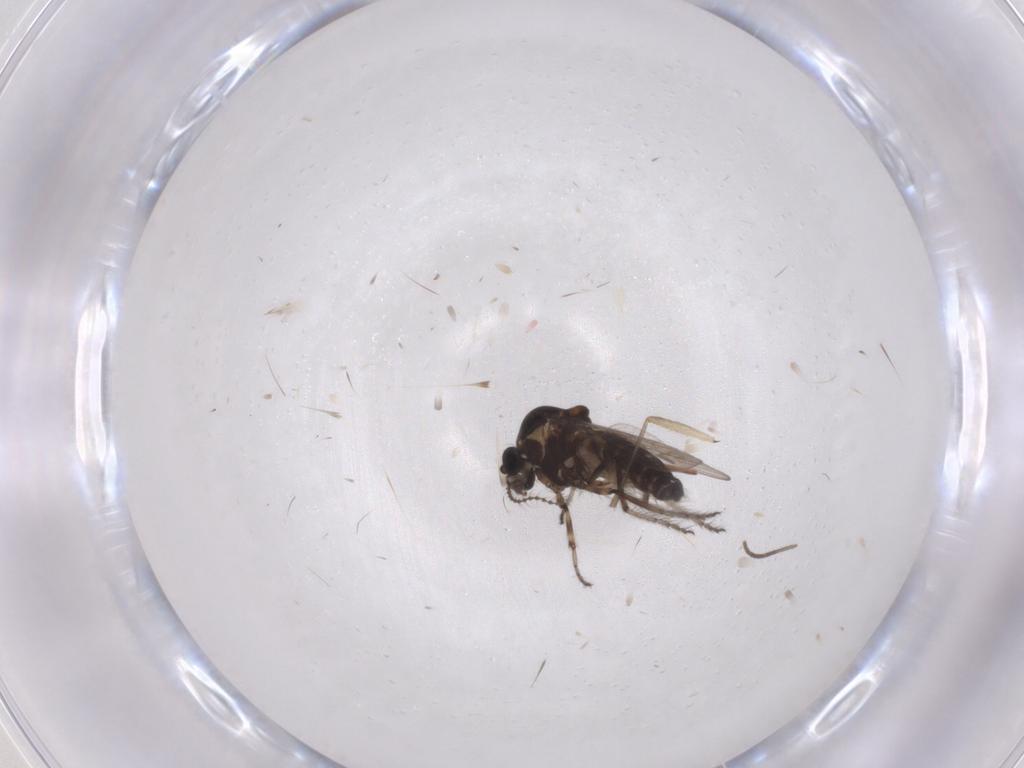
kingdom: Animalia
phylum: Arthropoda
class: Insecta
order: Diptera
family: Ceratopogonidae
